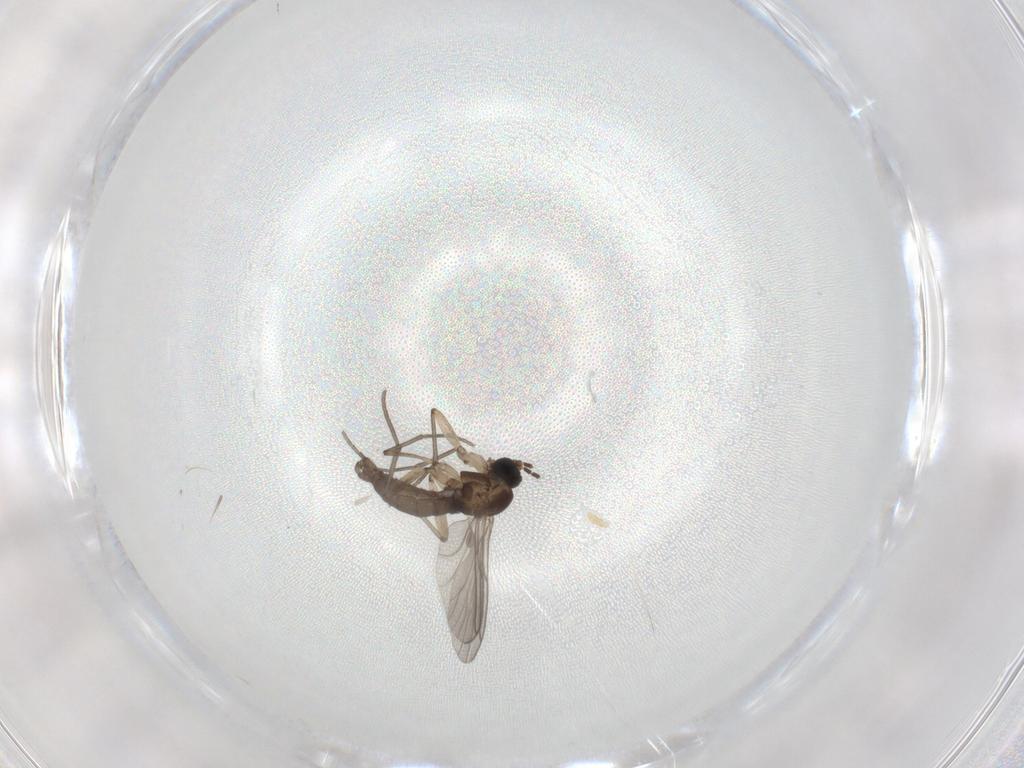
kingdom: Animalia
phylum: Arthropoda
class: Insecta
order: Diptera
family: Sciaridae
